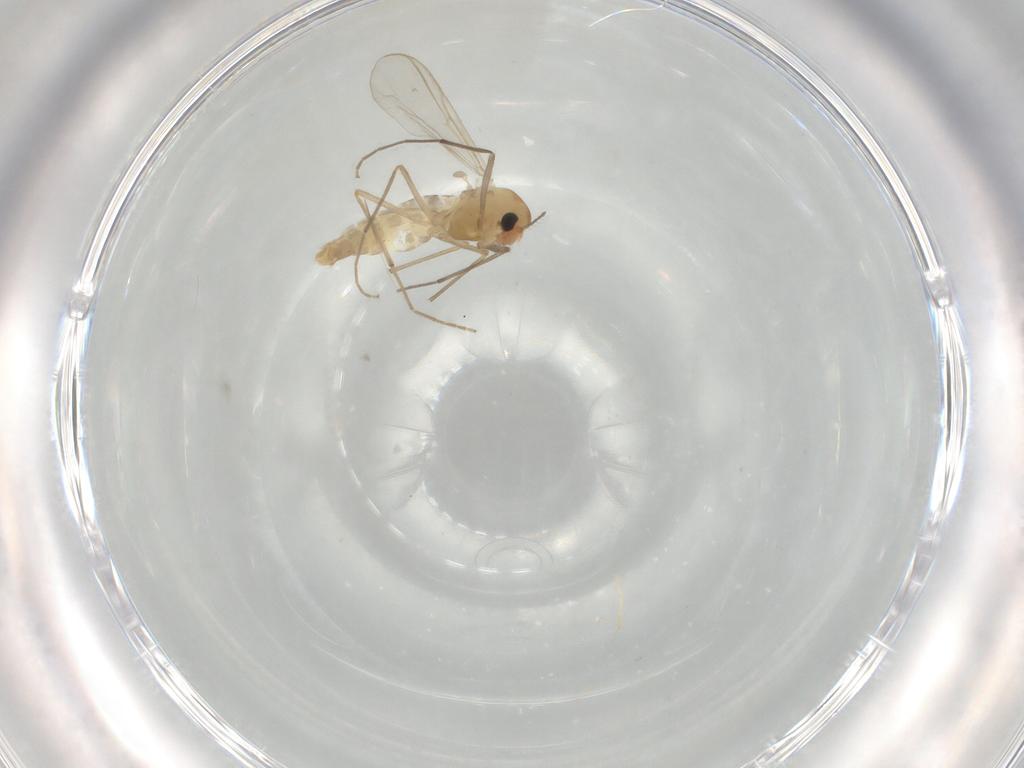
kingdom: Animalia
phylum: Arthropoda
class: Insecta
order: Diptera
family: Chironomidae
